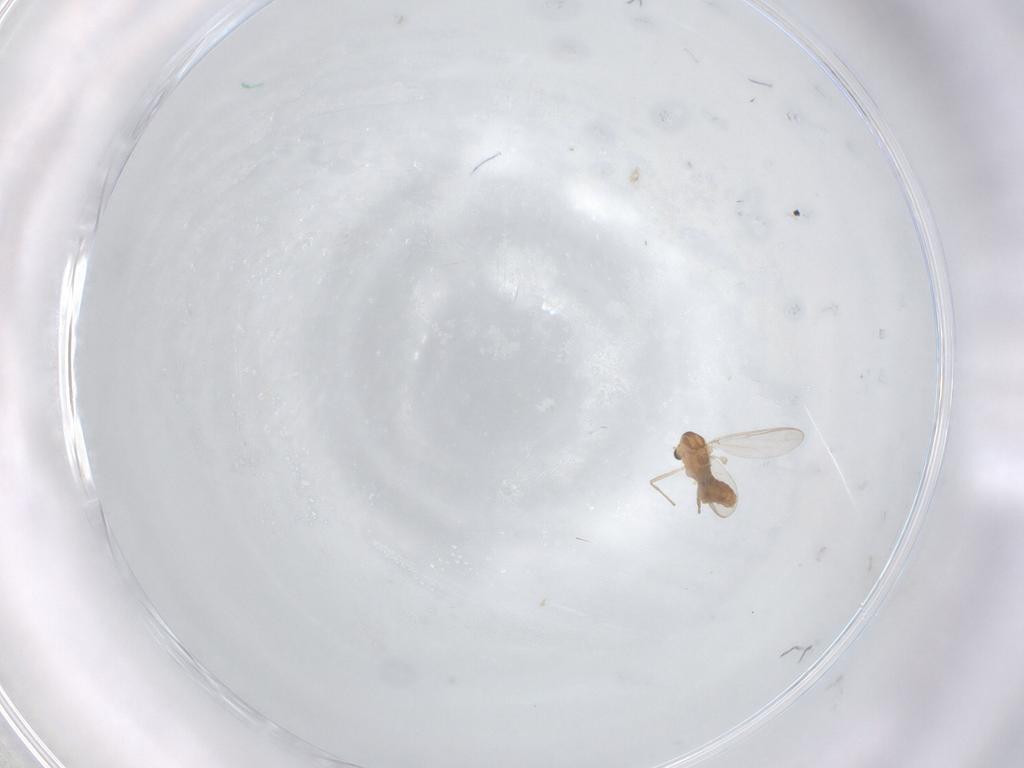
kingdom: Animalia
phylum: Arthropoda
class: Insecta
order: Diptera
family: Chironomidae
